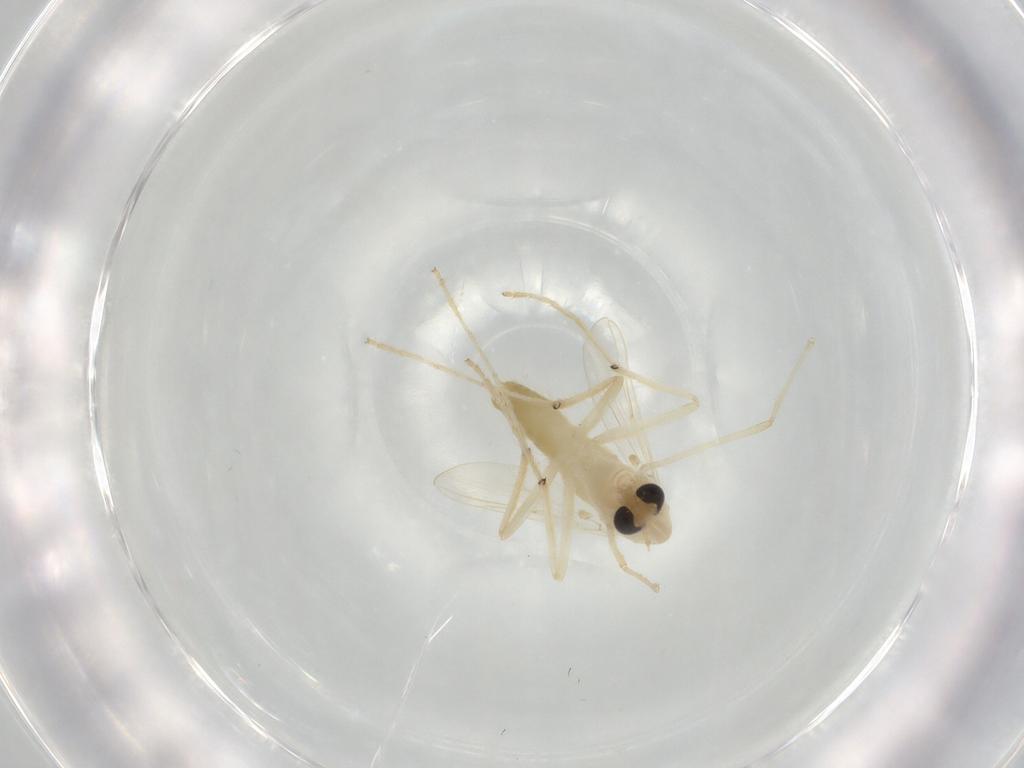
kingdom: Animalia
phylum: Arthropoda
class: Insecta
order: Diptera
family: Chironomidae
